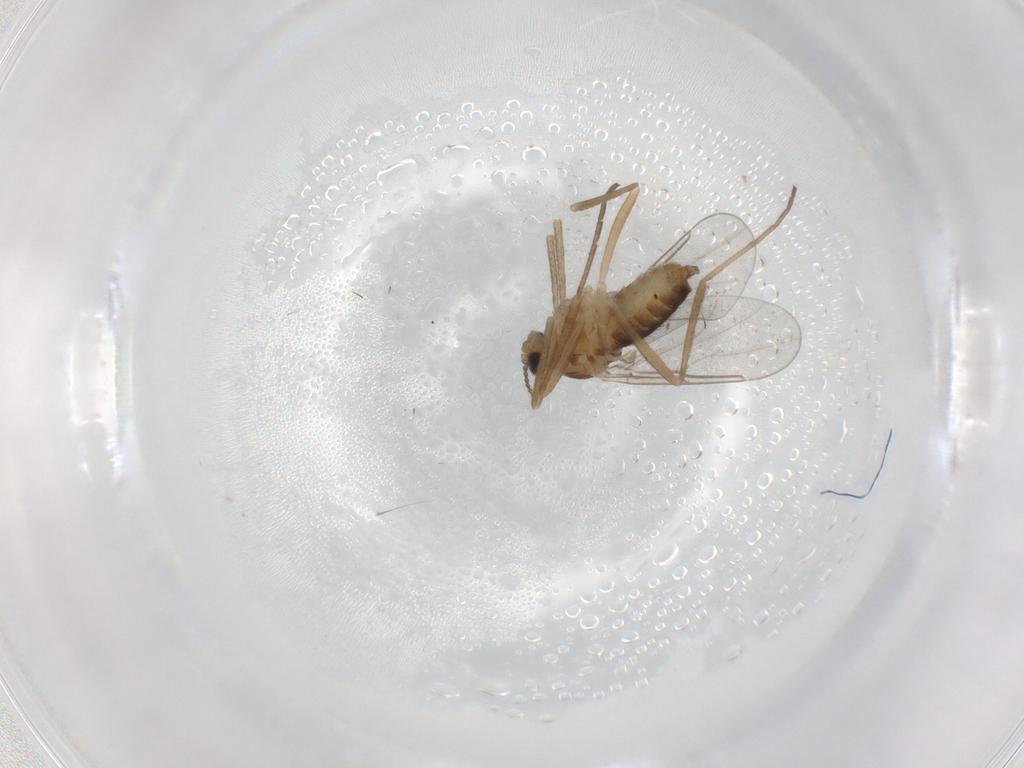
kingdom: Animalia
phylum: Arthropoda
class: Insecta
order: Diptera
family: Cecidomyiidae
